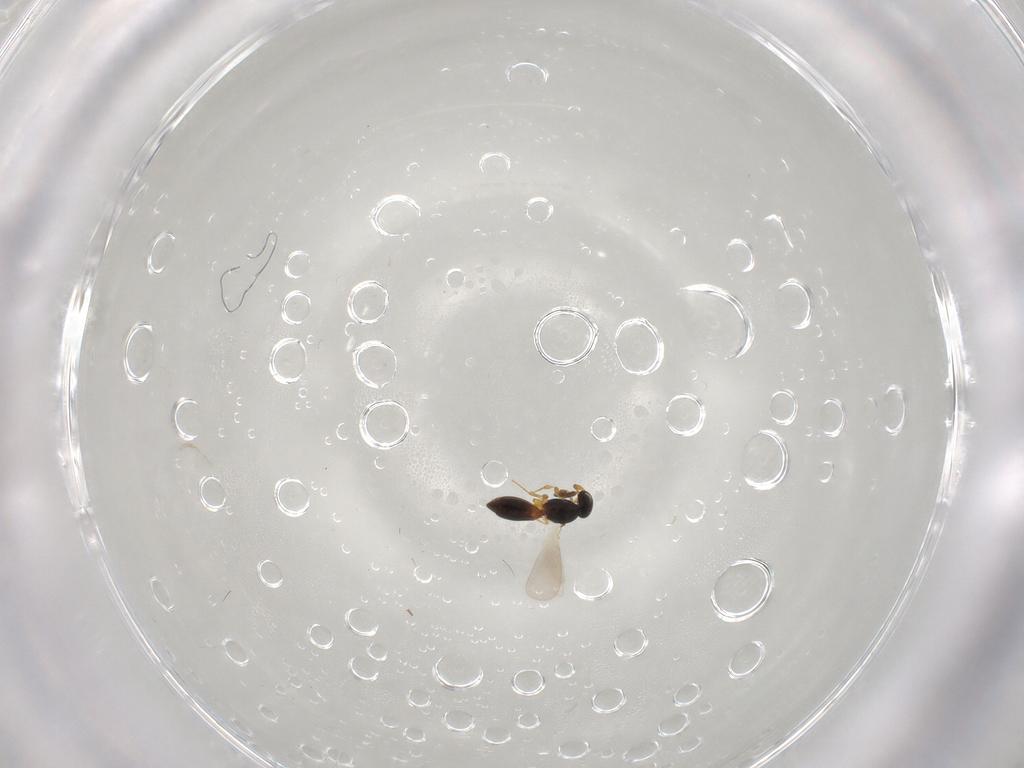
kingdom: Animalia
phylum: Arthropoda
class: Insecta
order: Hymenoptera
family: Platygastridae
